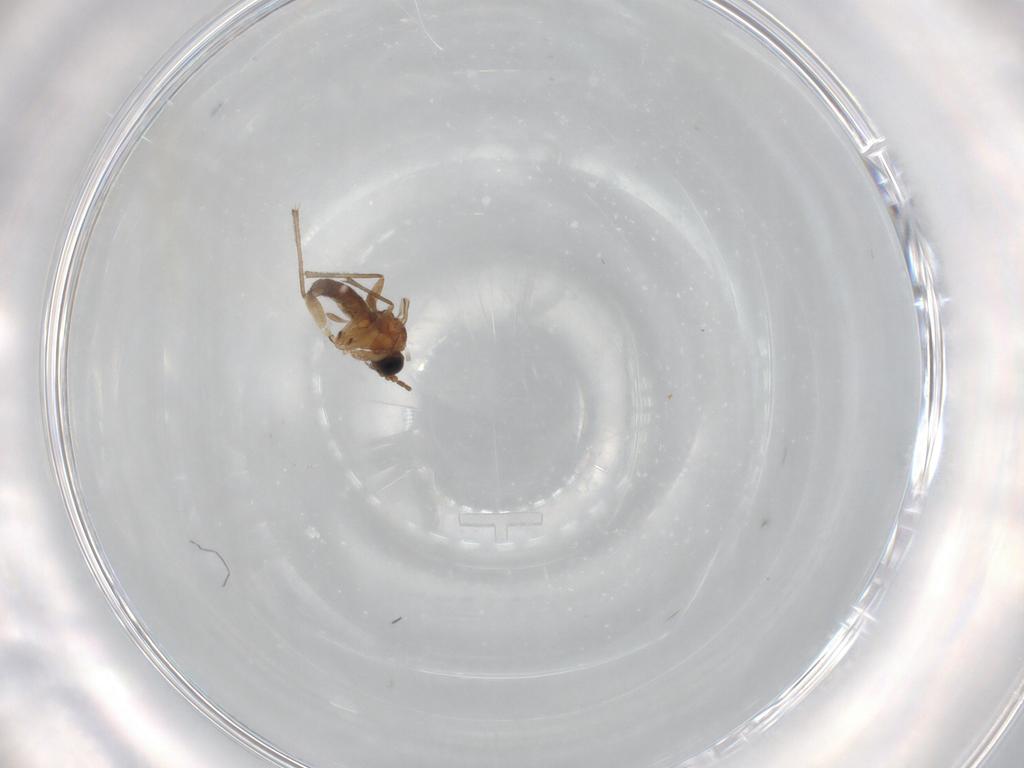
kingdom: Animalia
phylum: Arthropoda
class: Insecta
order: Diptera
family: Sciaridae
